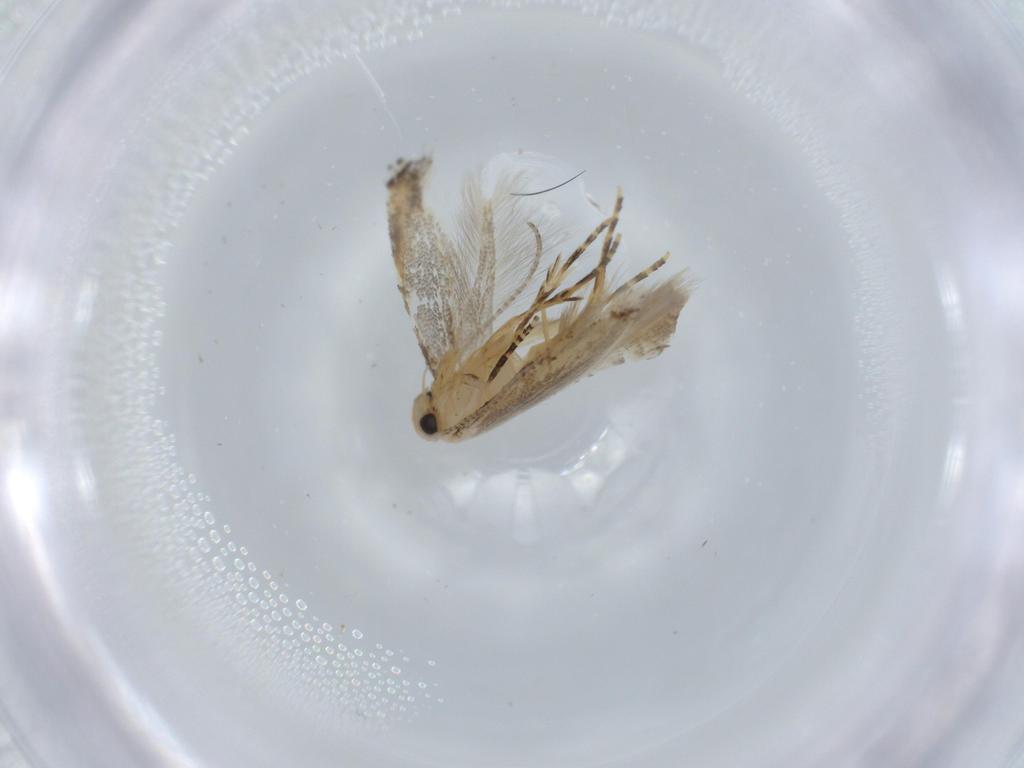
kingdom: Animalia
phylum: Arthropoda
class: Insecta
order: Lepidoptera
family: Bucculatricidae
